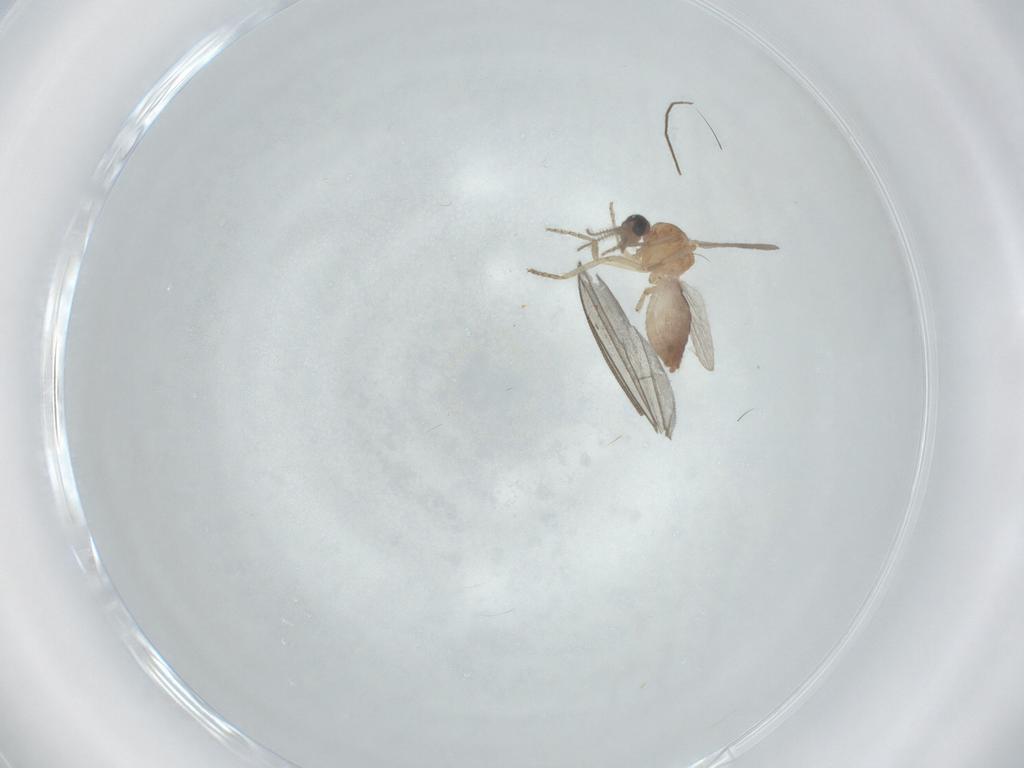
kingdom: Animalia
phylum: Arthropoda
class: Insecta
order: Diptera
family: Ceratopogonidae
